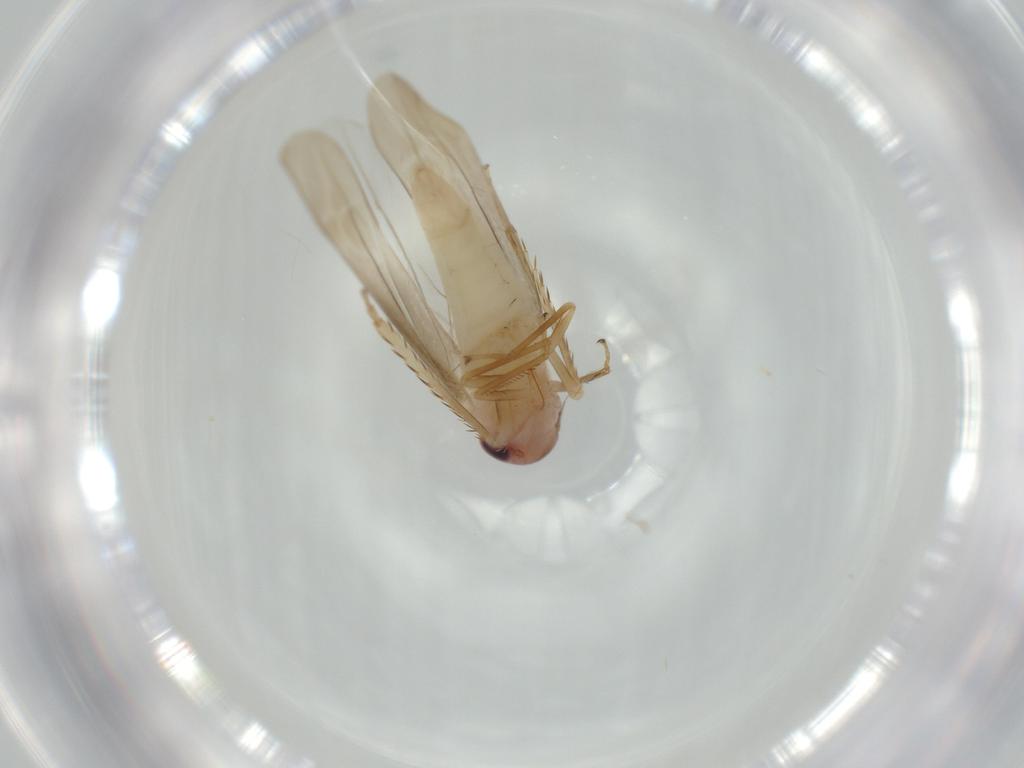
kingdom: Animalia
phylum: Arthropoda
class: Insecta
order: Hemiptera
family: Cicadellidae
